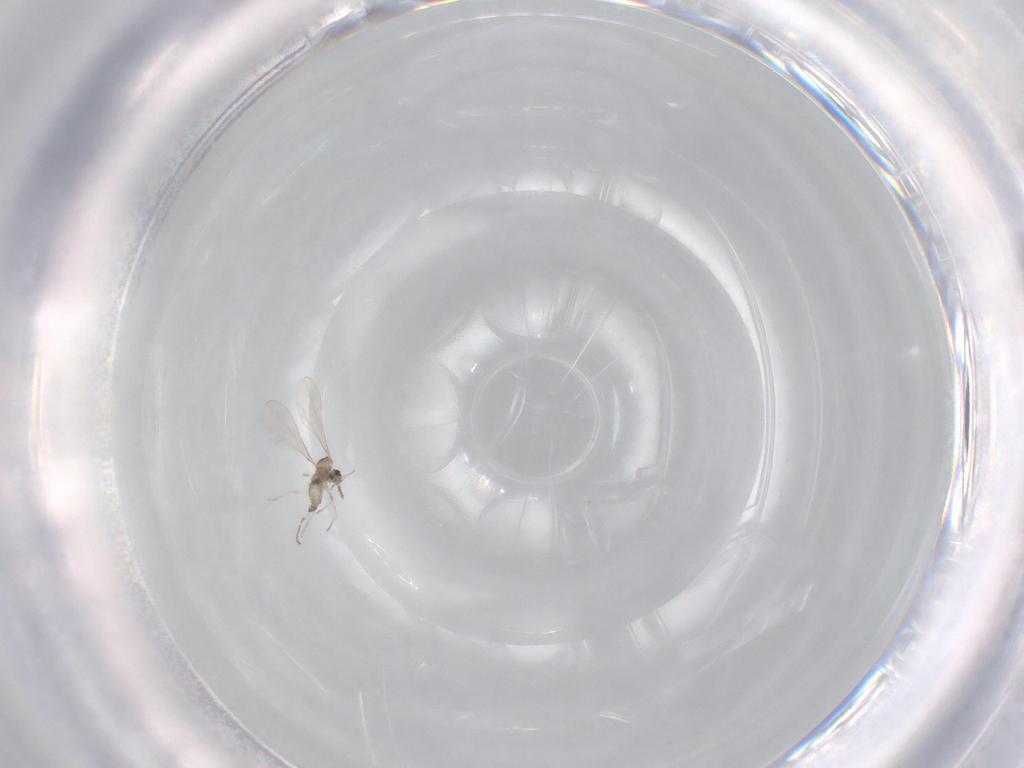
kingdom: Animalia
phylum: Arthropoda
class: Insecta
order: Diptera
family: Cecidomyiidae
